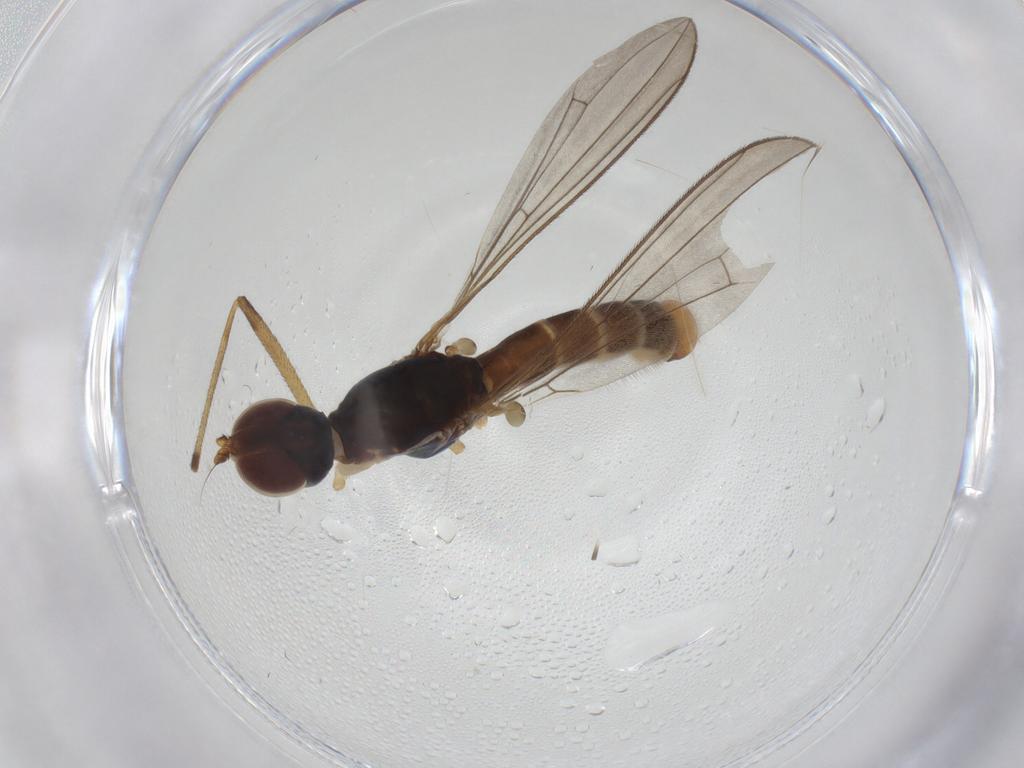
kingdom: Animalia
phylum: Arthropoda
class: Insecta
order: Diptera
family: Micropezidae
